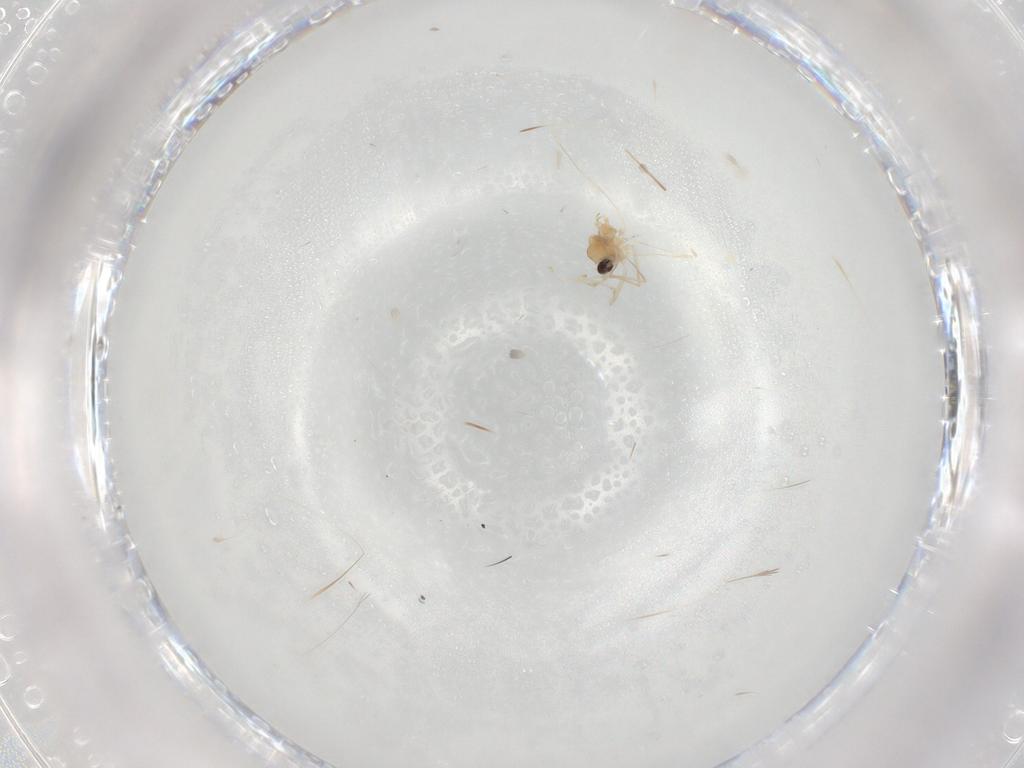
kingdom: Animalia
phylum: Arthropoda
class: Insecta
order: Diptera
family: Cecidomyiidae
